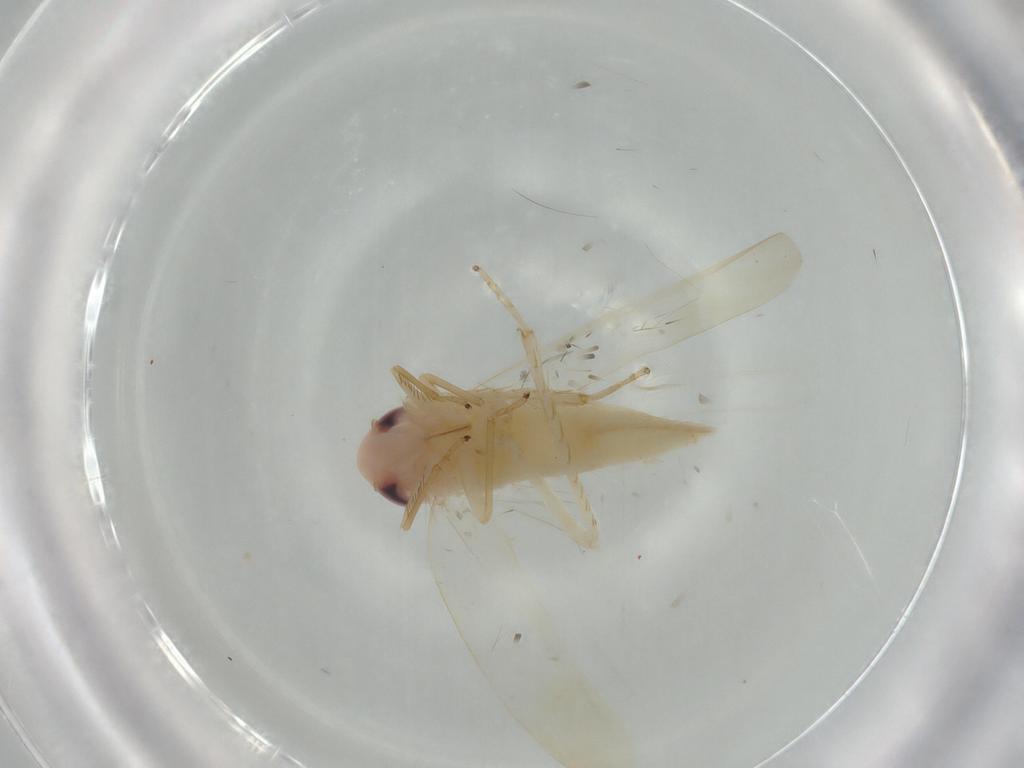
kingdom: Animalia
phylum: Arthropoda
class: Insecta
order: Hemiptera
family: Cicadellidae
